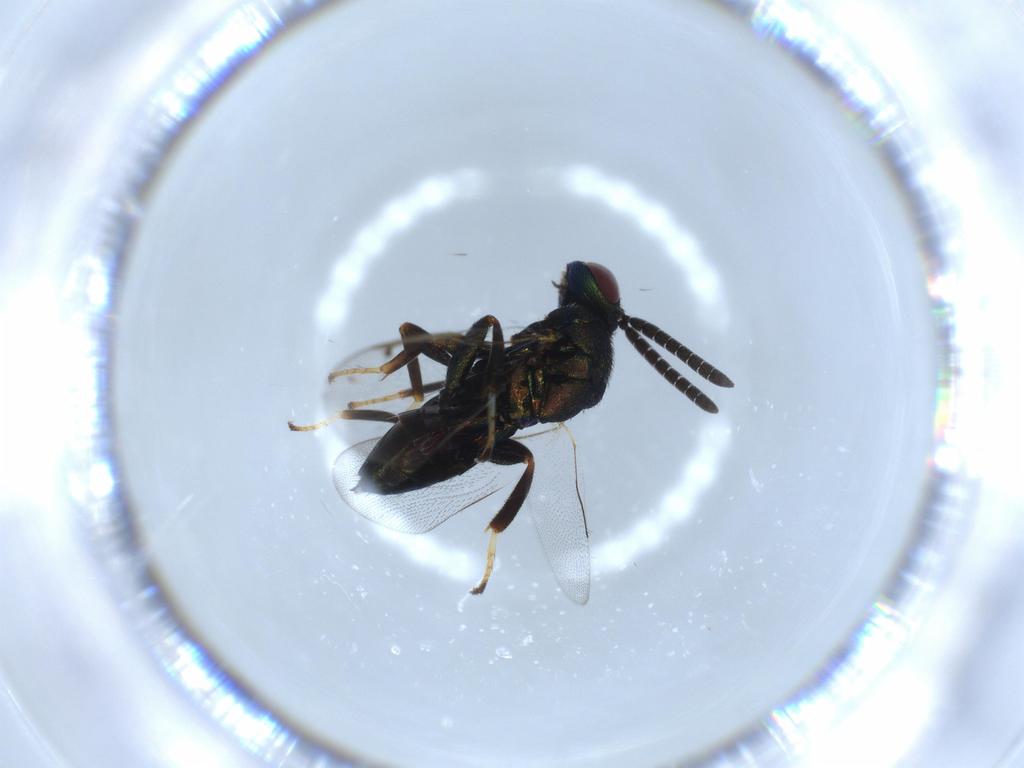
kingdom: Animalia
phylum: Arthropoda
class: Insecta
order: Hymenoptera
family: Torymidae
